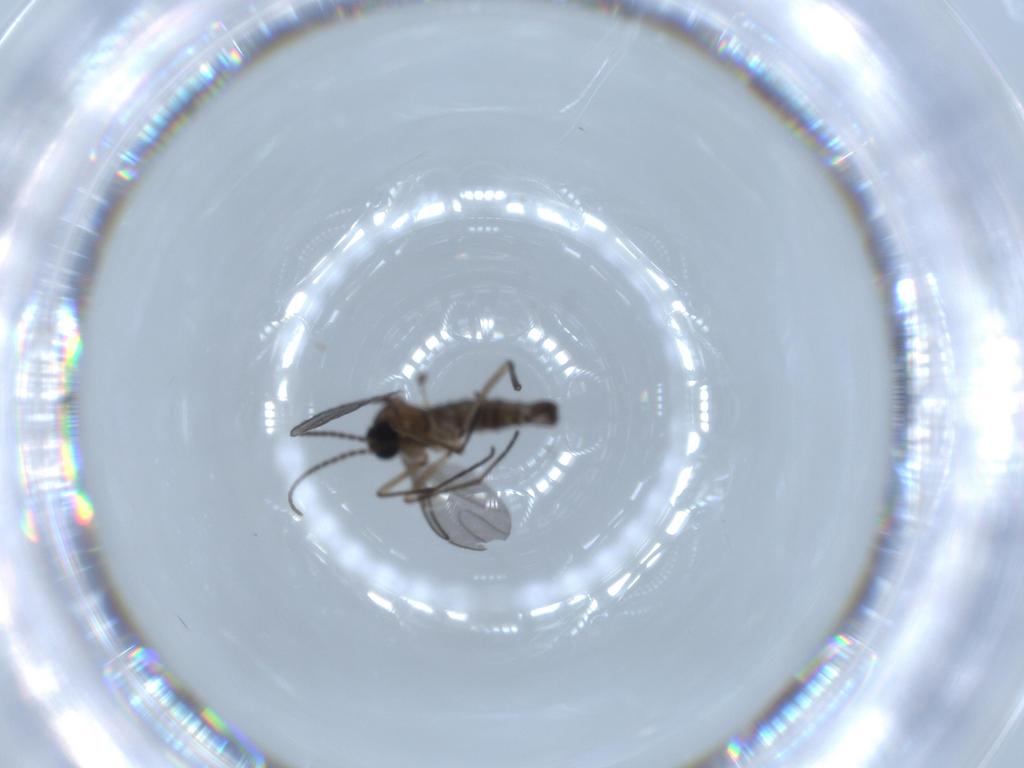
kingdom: Animalia
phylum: Arthropoda
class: Insecta
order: Diptera
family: Sciaridae
